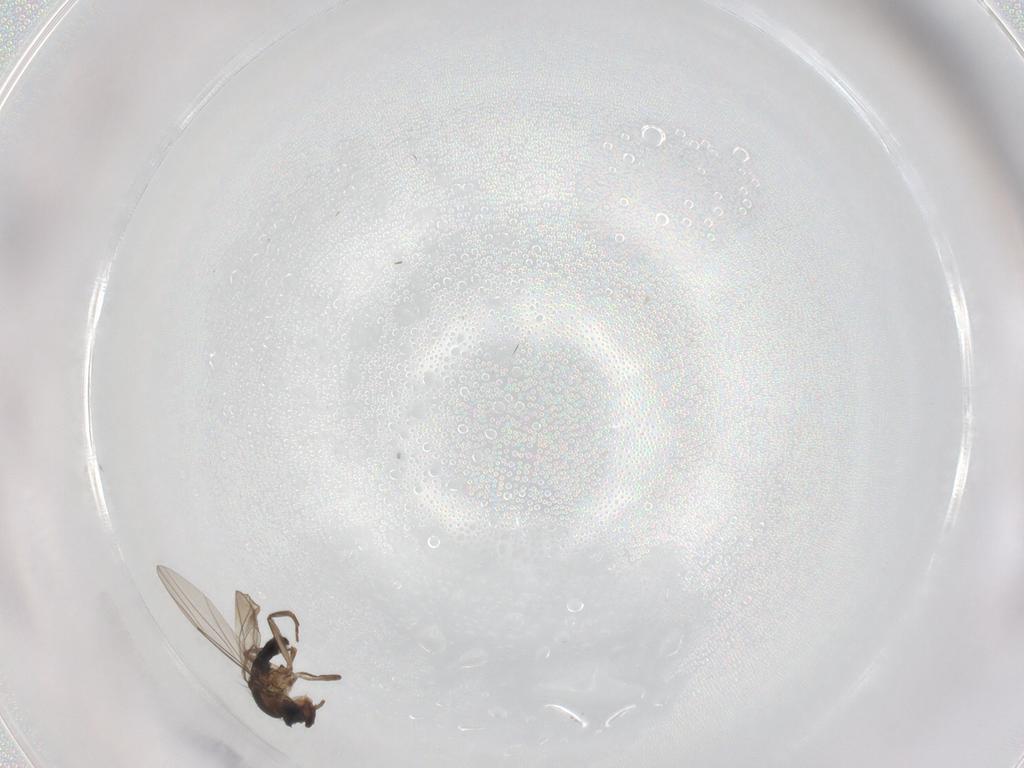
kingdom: Animalia
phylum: Arthropoda
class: Insecta
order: Diptera
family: Phoridae
